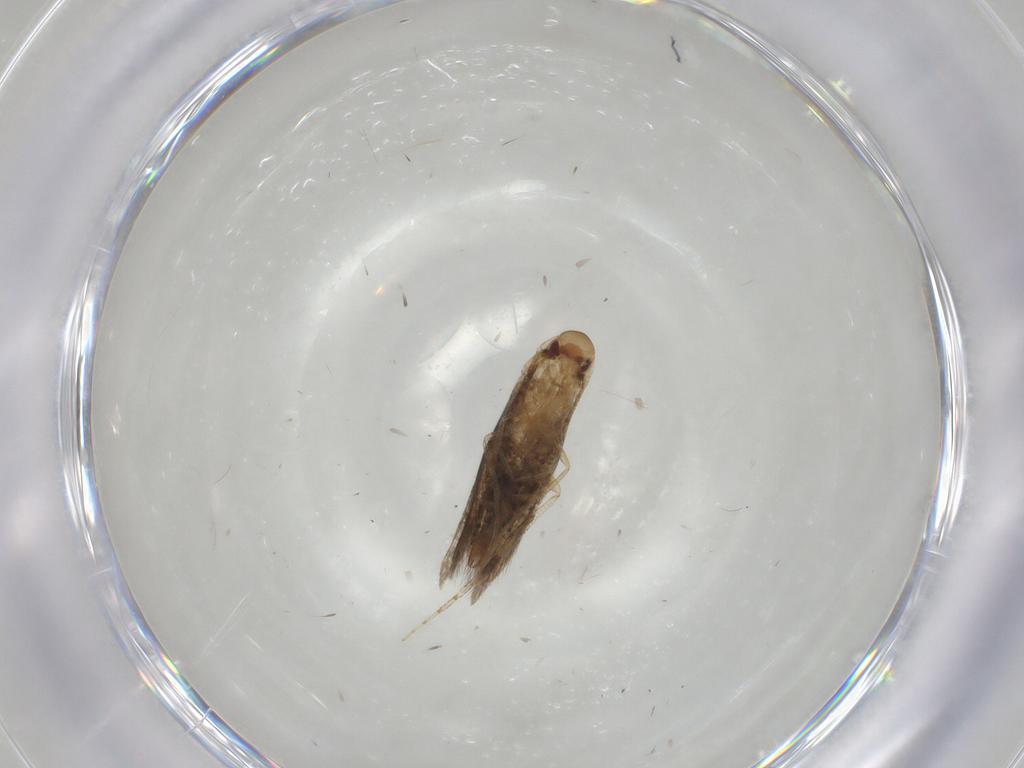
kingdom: Animalia
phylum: Arthropoda
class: Insecta
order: Lepidoptera
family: Momphidae
